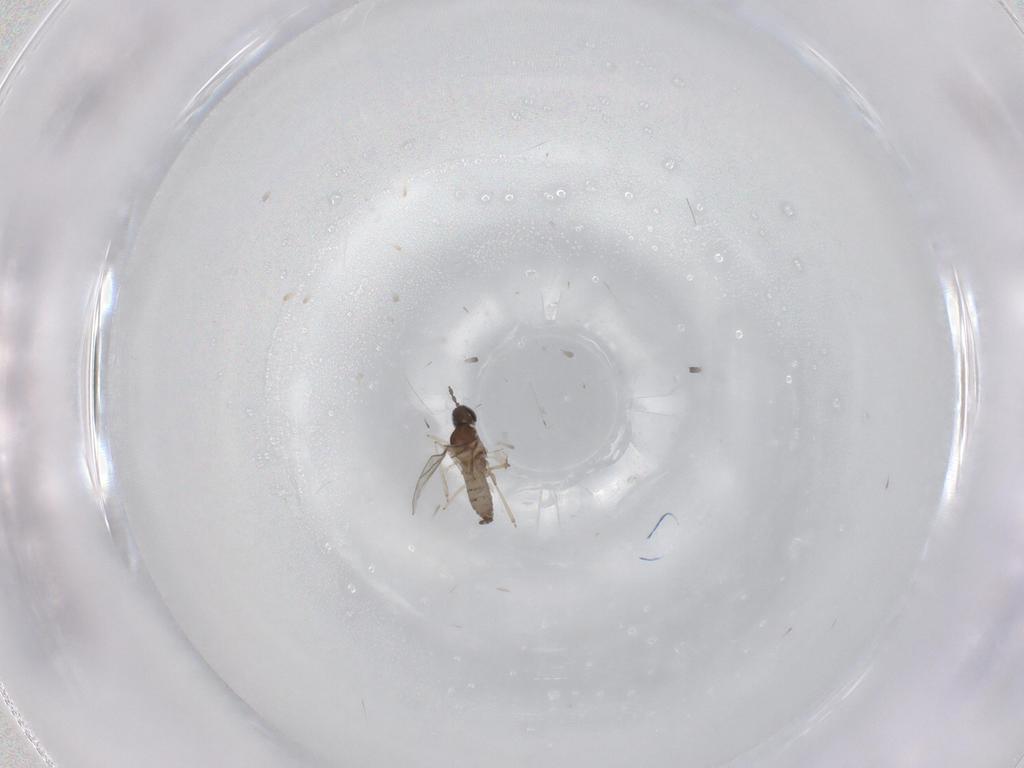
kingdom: Animalia
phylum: Arthropoda
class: Insecta
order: Diptera
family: Cecidomyiidae
